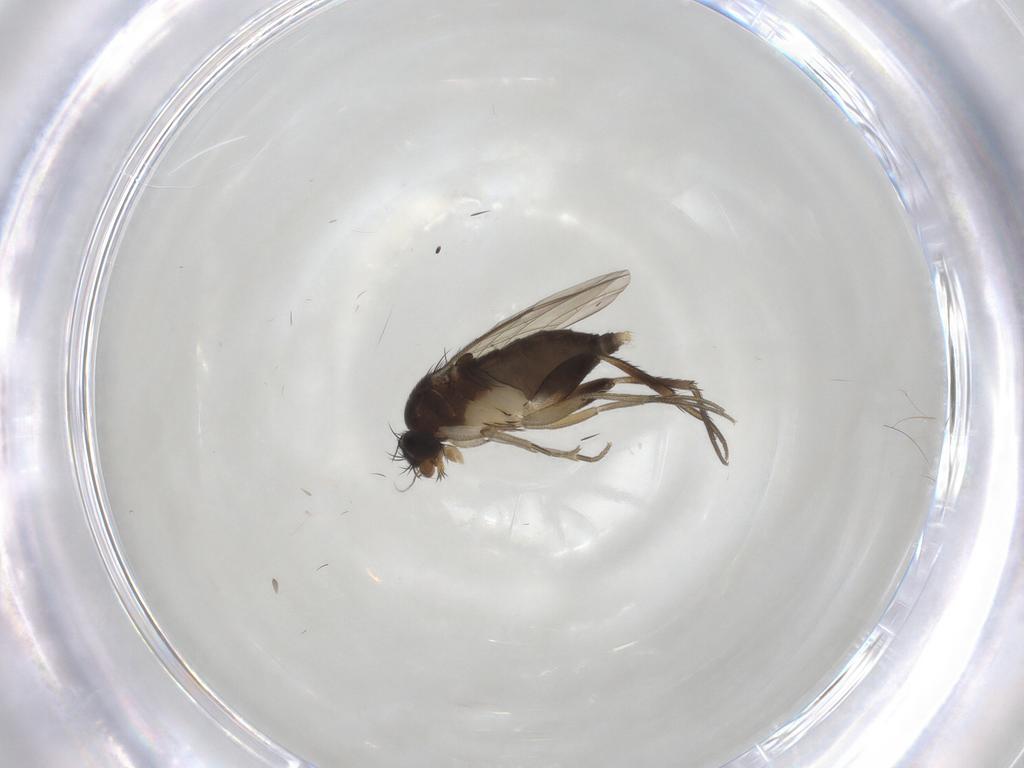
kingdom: Animalia
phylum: Arthropoda
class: Insecta
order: Diptera
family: Phoridae
